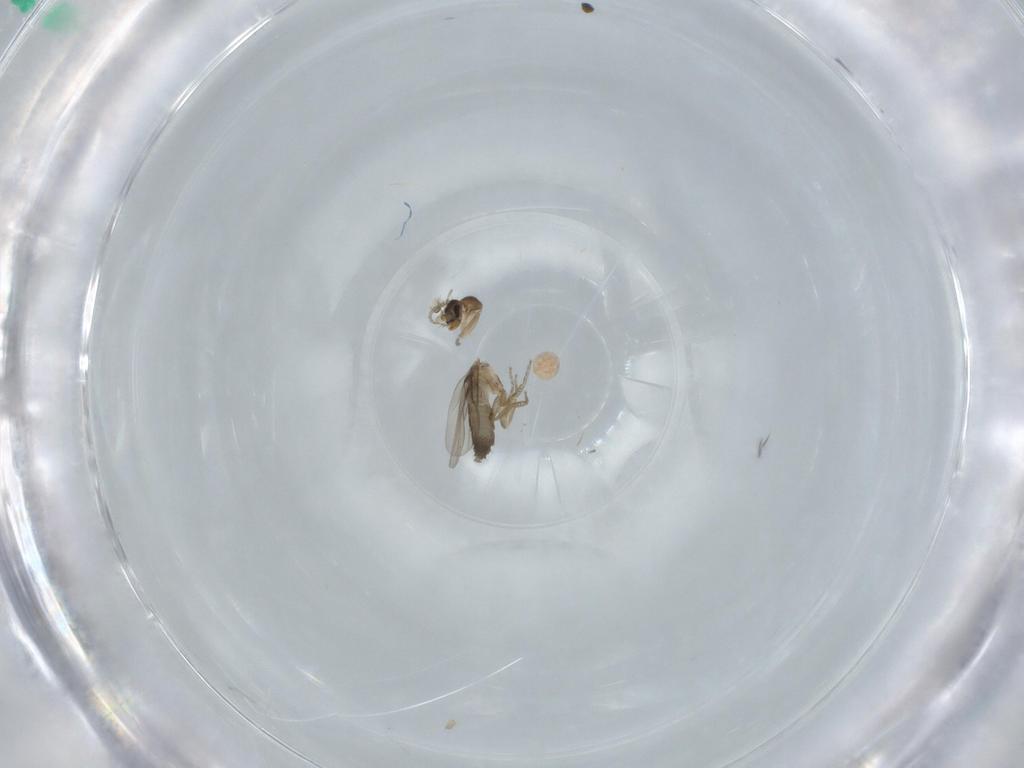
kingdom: Animalia
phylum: Arthropoda
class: Insecta
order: Diptera
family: Phoridae
